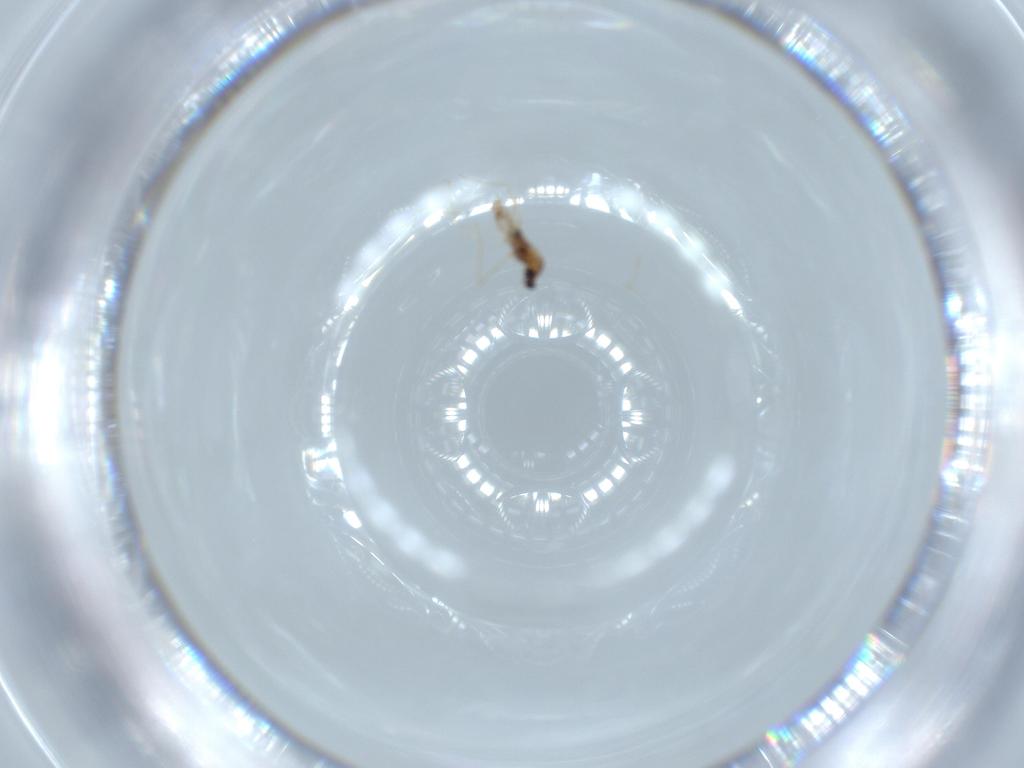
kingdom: Animalia
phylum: Arthropoda
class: Insecta
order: Diptera
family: Cecidomyiidae
